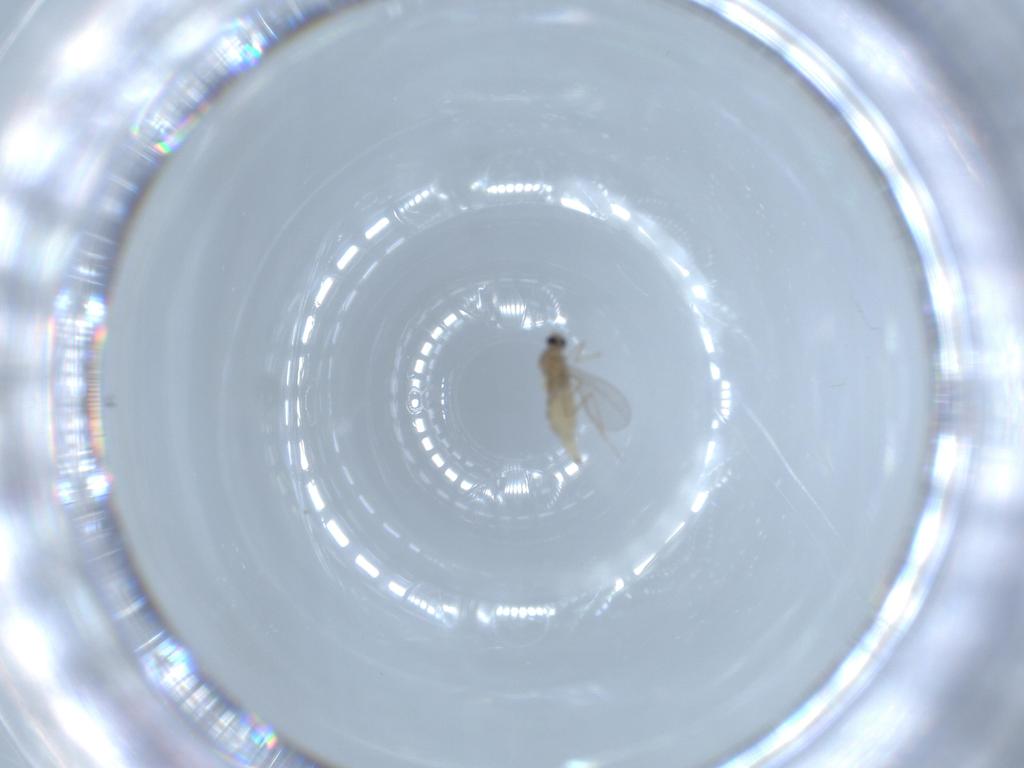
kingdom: Animalia
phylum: Arthropoda
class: Insecta
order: Diptera
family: Cecidomyiidae
